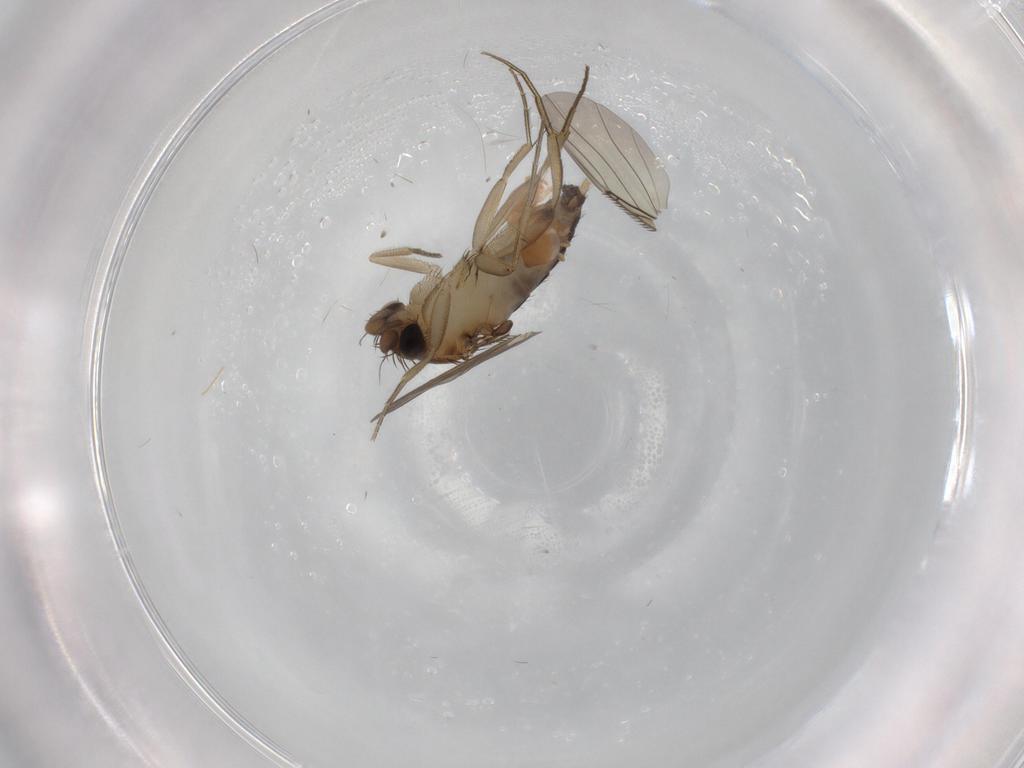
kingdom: Animalia
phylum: Arthropoda
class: Insecta
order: Diptera
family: Phoridae
